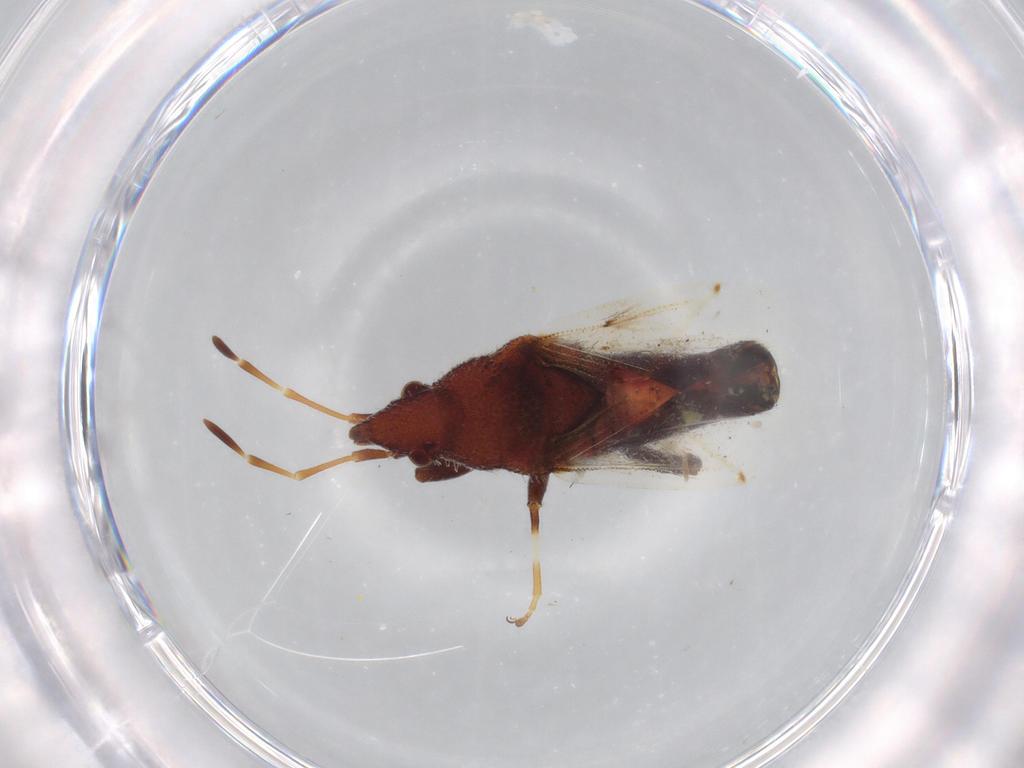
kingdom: Animalia
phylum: Arthropoda
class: Insecta
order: Hemiptera
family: Oxycarenidae
